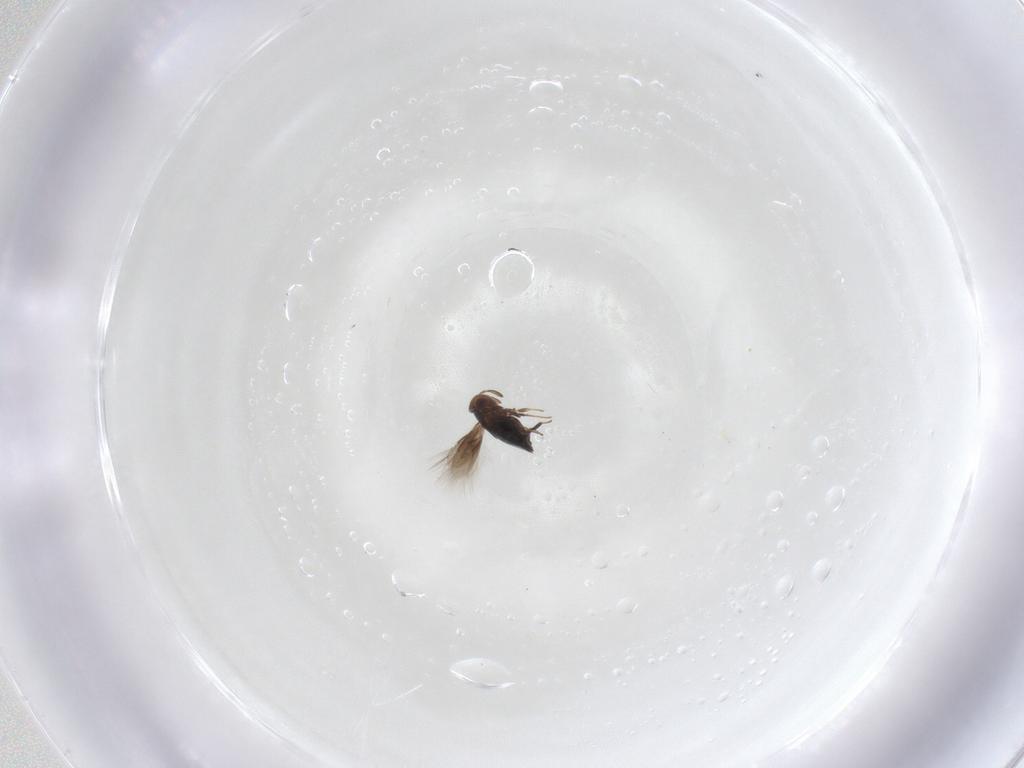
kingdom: Animalia
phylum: Arthropoda
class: Insecta
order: Hymenoptera
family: Signiphoridae
